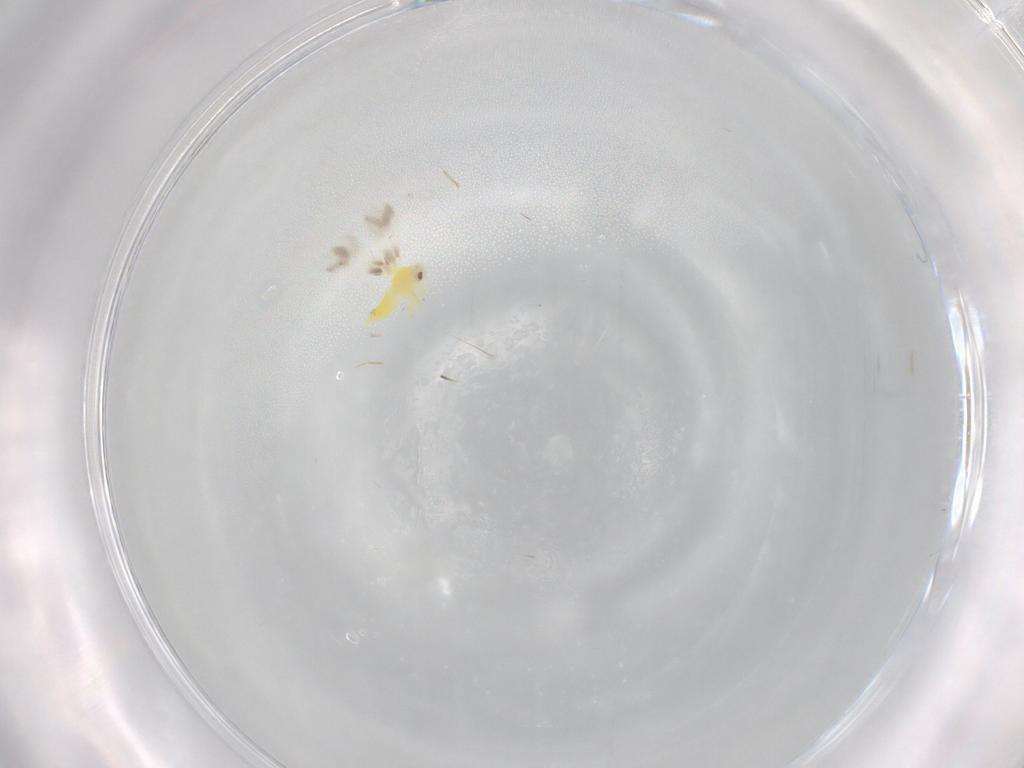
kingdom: Animalia
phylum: Arthropoda
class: Insecta
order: Hemiptera
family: Aleyrodidae
